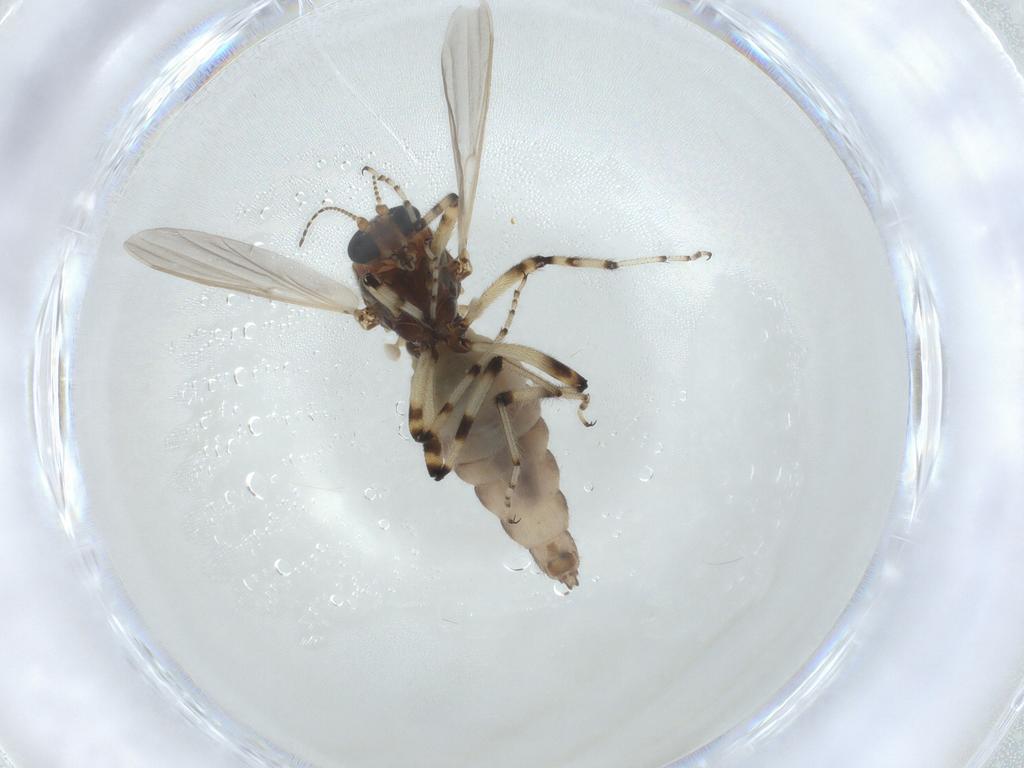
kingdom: Animalia
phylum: Arthropoda
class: Insecta
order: Diptera
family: Ceratopogonidae
